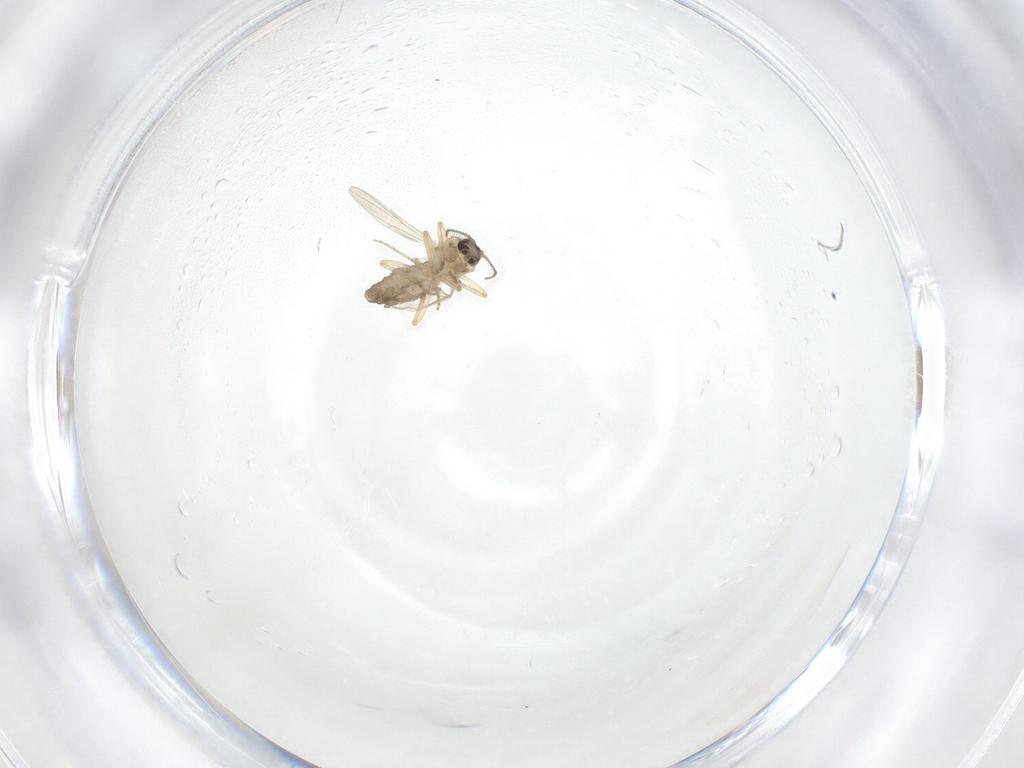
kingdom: Animalia
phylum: Arthropoda
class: Insecta
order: Diptera
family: Ceratopogonidae
